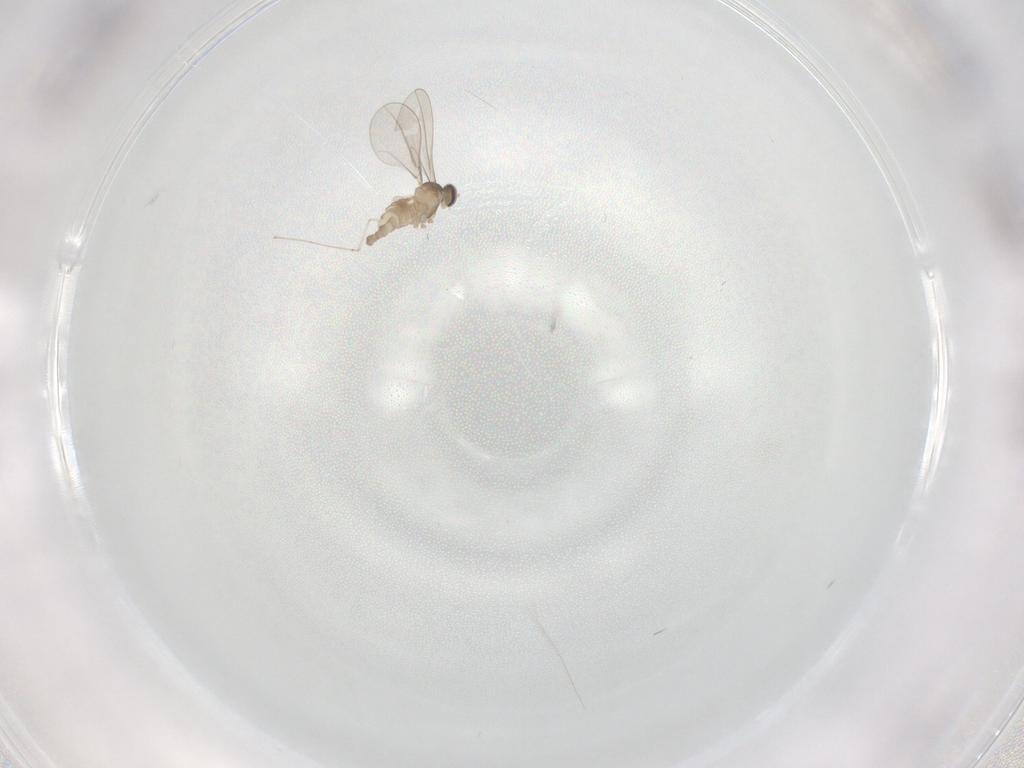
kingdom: Animalia
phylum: Arthropoda
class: Insecta
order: Diptera
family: Cecidomyiidae
